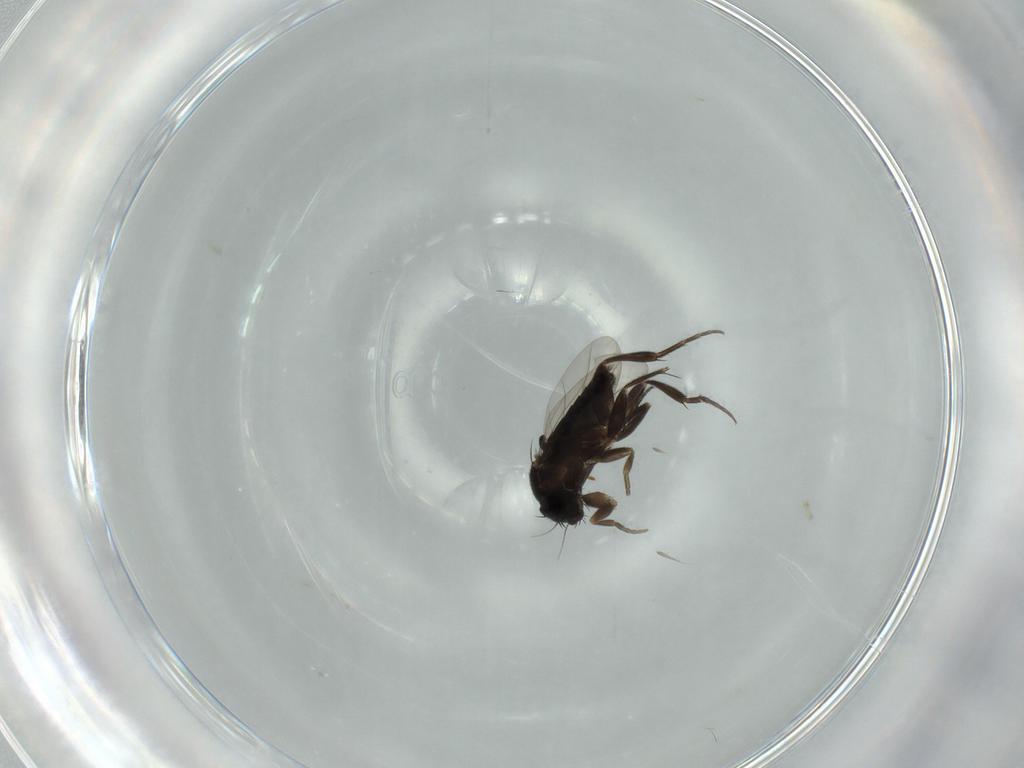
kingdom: Animalia
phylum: Arthropoda
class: Insecta
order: Diptera
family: Phoridae
